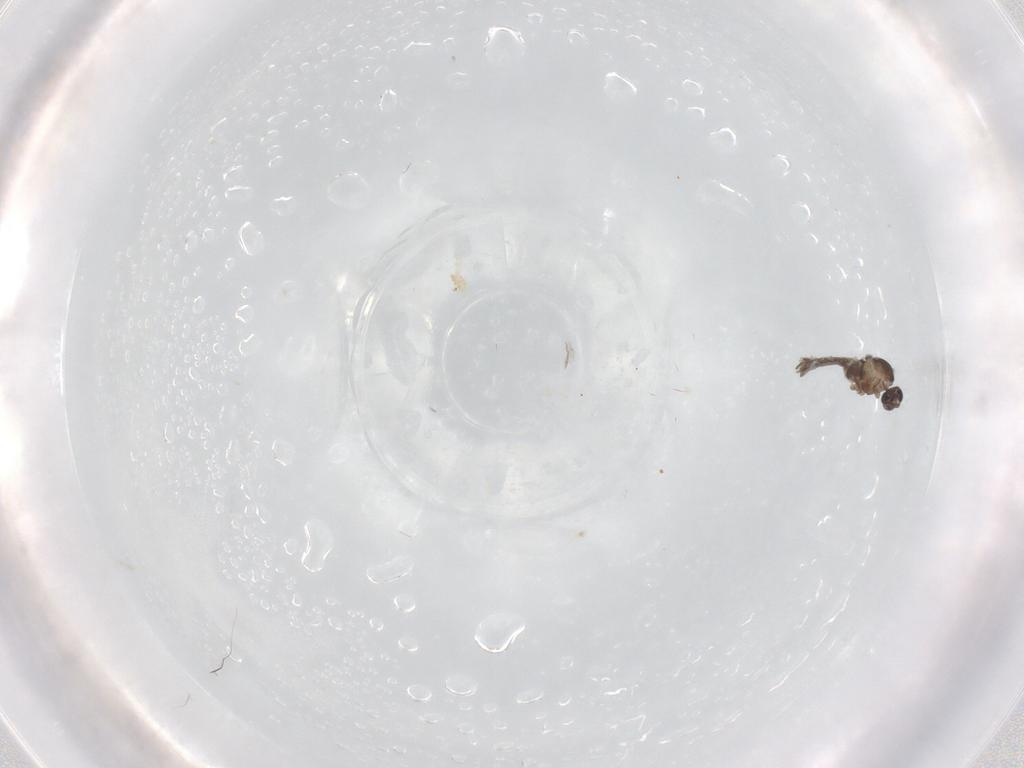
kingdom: Animalia
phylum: Arthropoda
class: Insecta
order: Diptera
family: Cecidomyiidae
